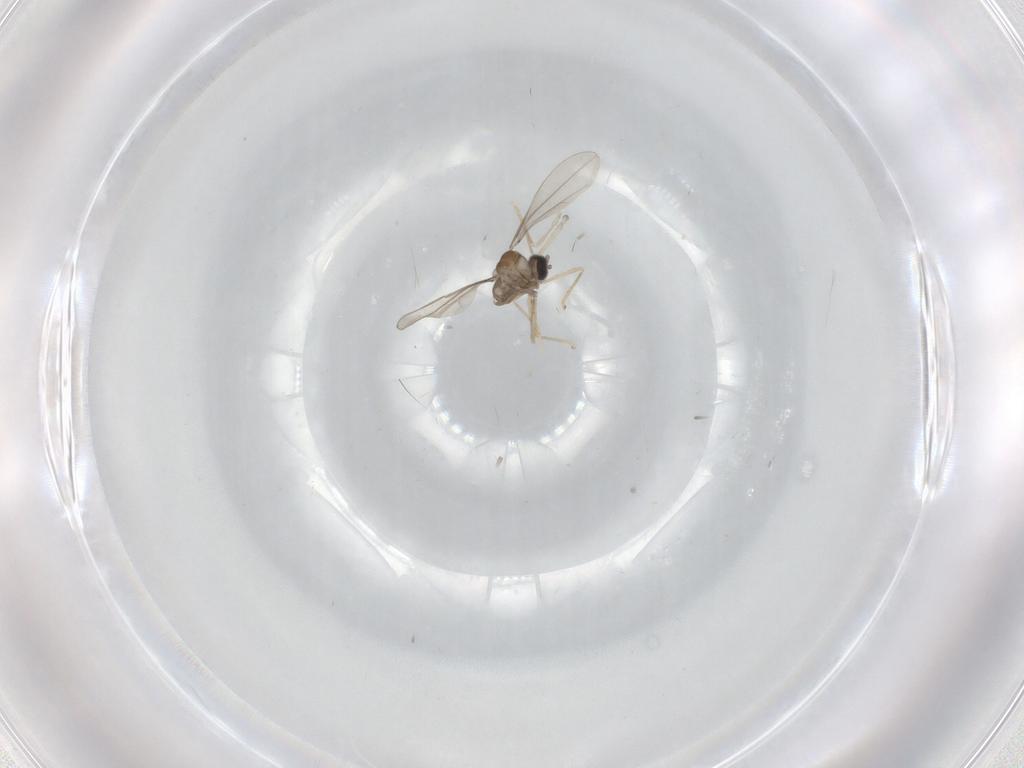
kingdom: Animalia
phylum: Arthropoda
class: Insecta
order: Diptera
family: Cecidomyiidae
